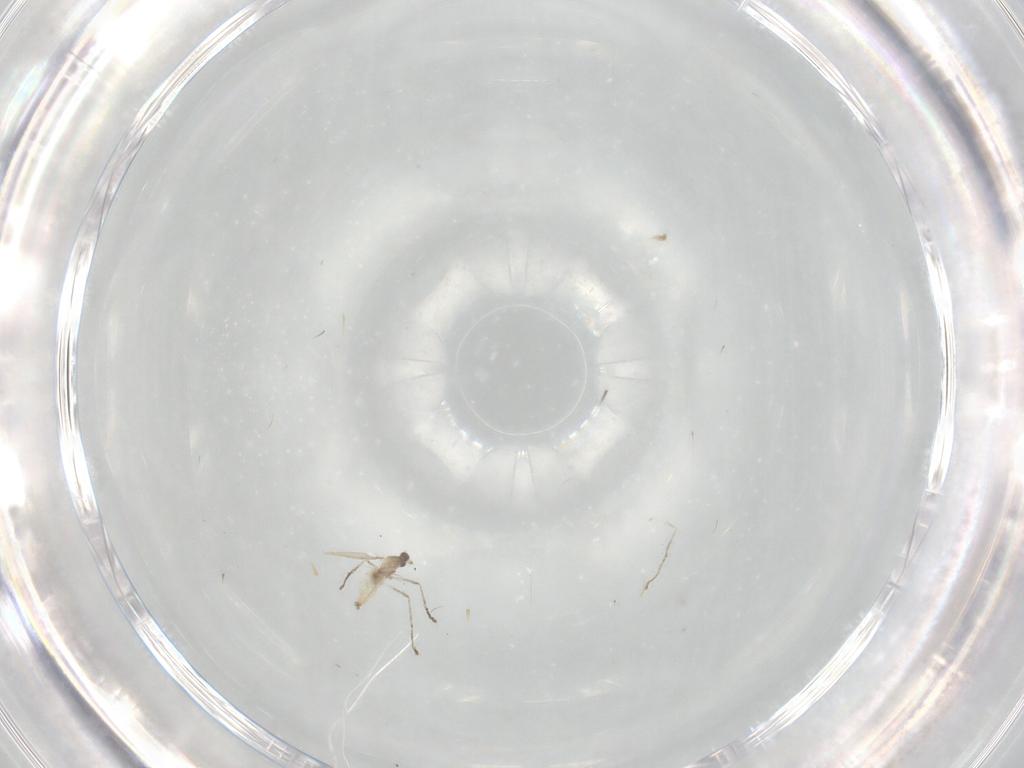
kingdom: Animalia
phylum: Arthropoda
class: Insecta
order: Diptera
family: Cecidomyiidae
